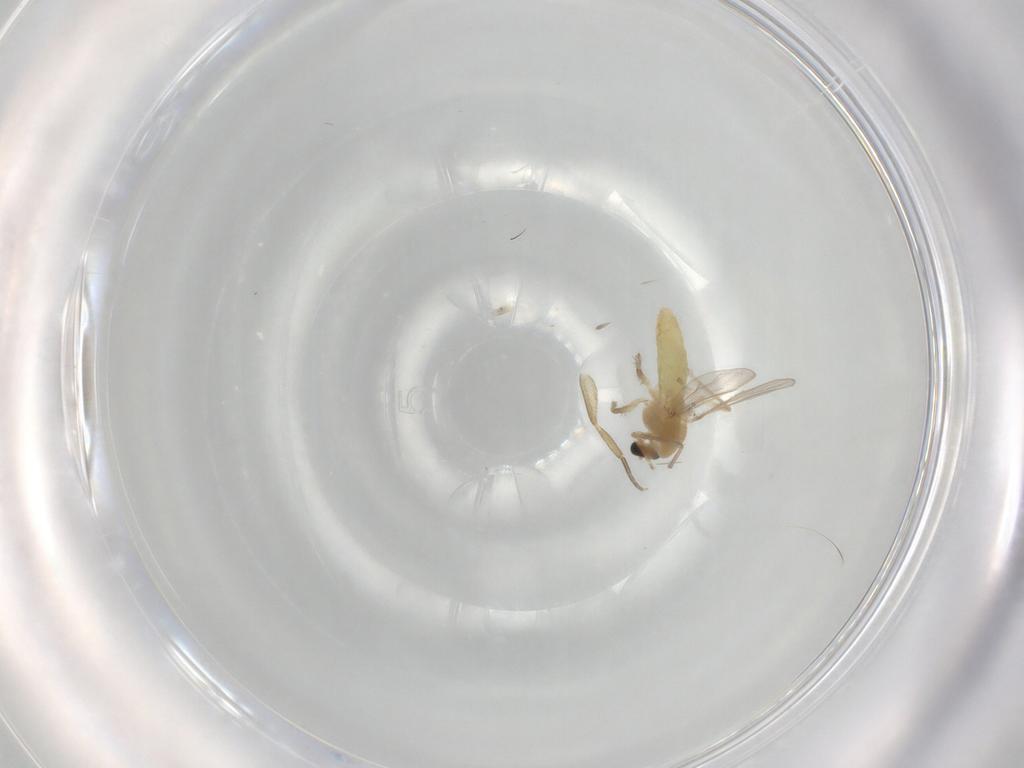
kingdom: Animalia
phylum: Arthropoda
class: Insecta
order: Diptera
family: Chironomidae
